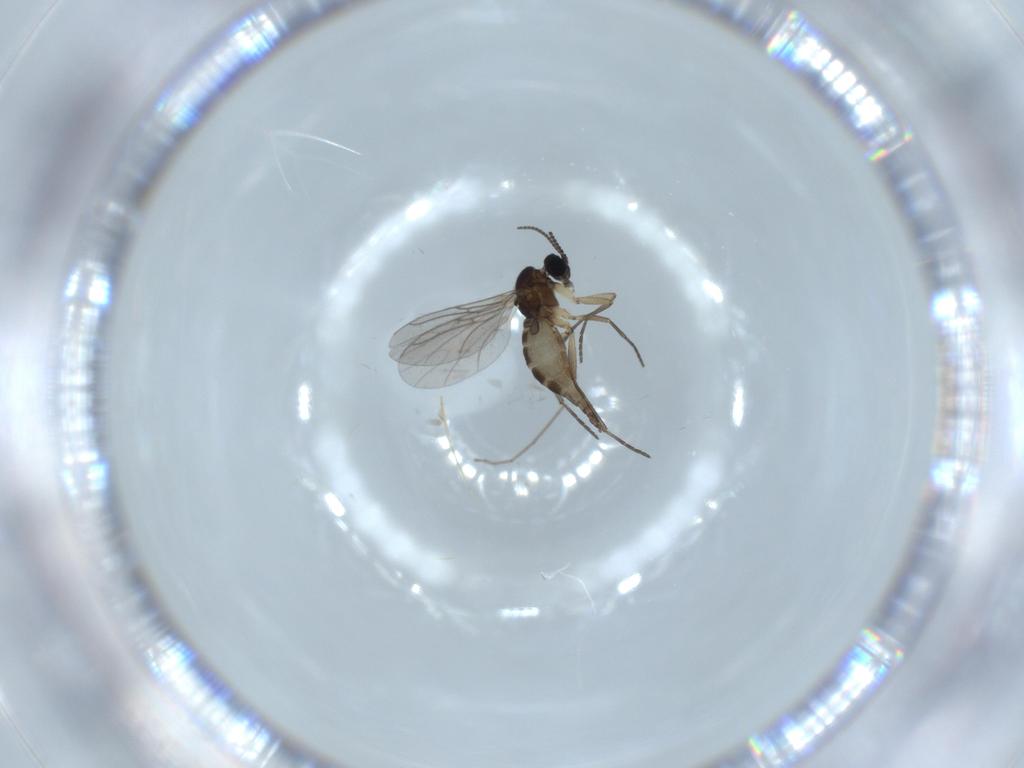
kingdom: Animalia
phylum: Arthropoda
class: Insecta
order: Diptera
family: Sciaridae
